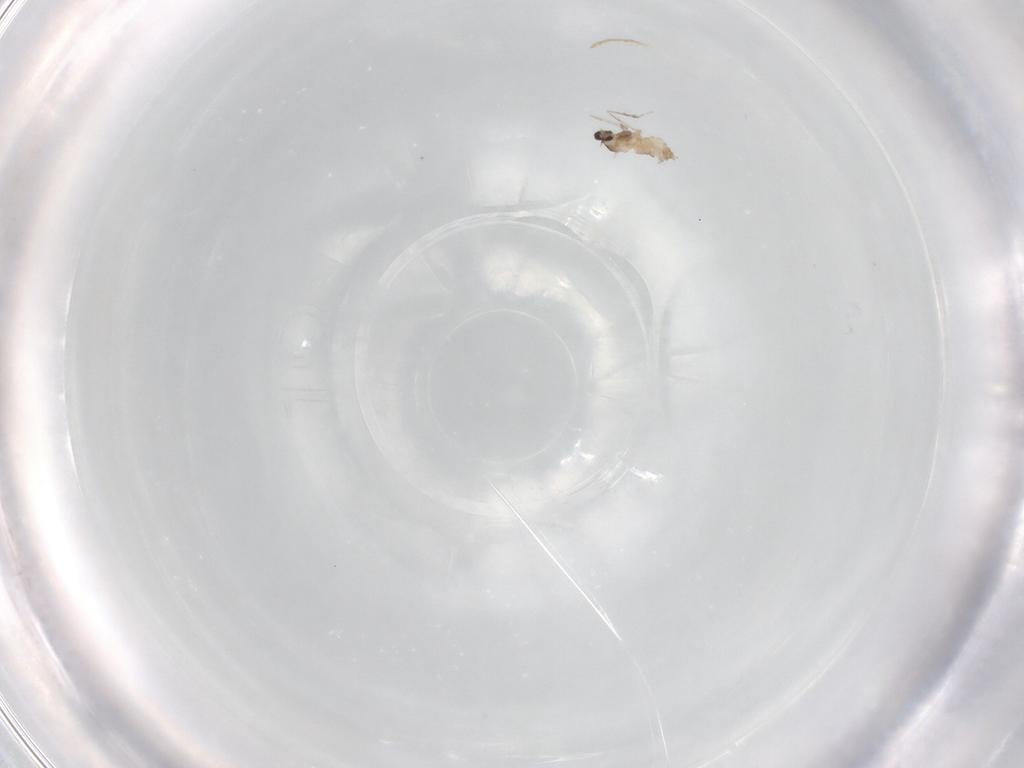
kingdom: Animalia
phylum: Arthropoda
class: Insecta
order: Diptera
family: Cecidomyiidae
